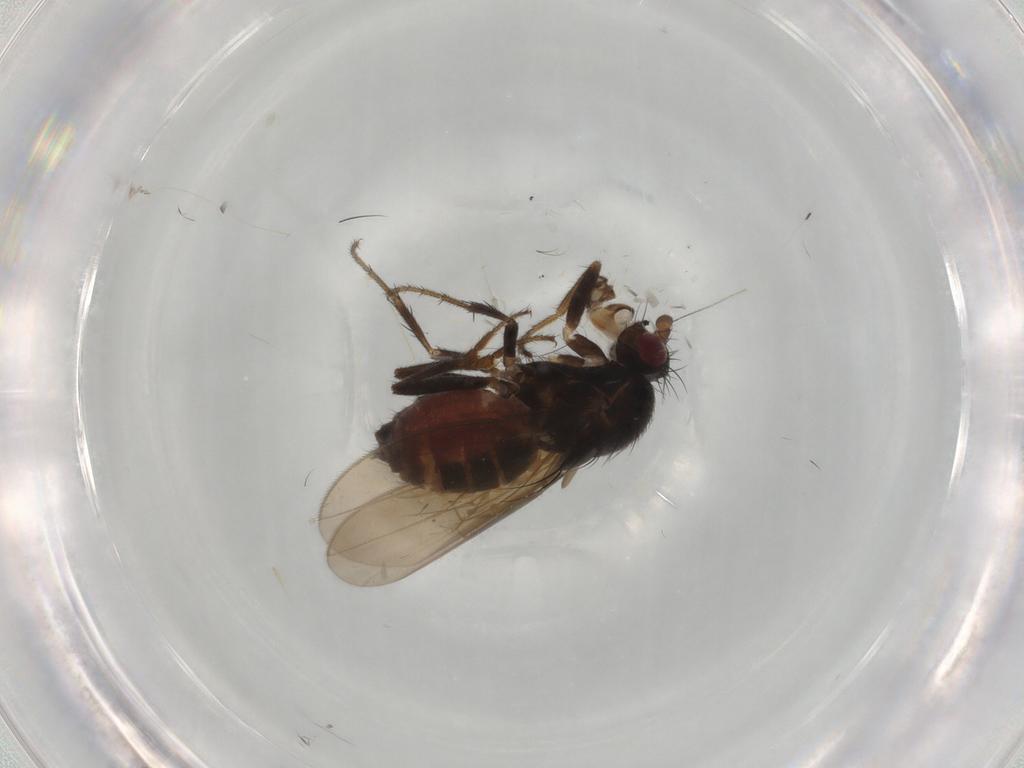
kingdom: Animalia
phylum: Arthropoda
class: Insecta
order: Diptera
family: Sphaeroceridae
